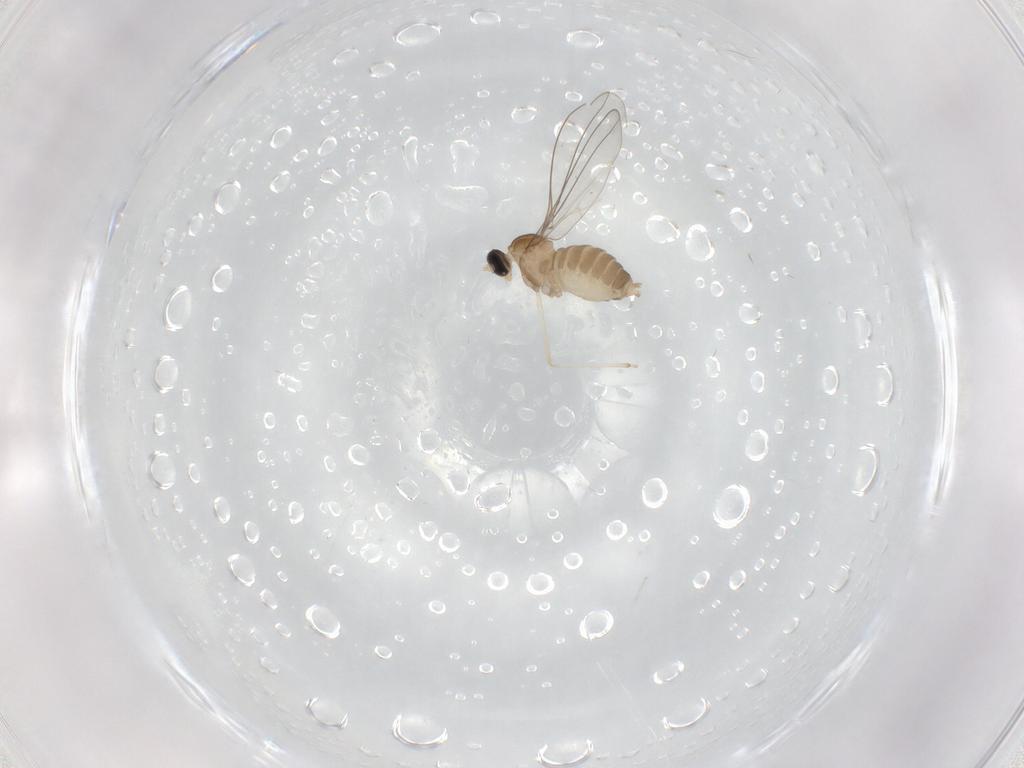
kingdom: Animalia
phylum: Arthropoda
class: Insecta
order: Diptera
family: Cecidomyiidae
